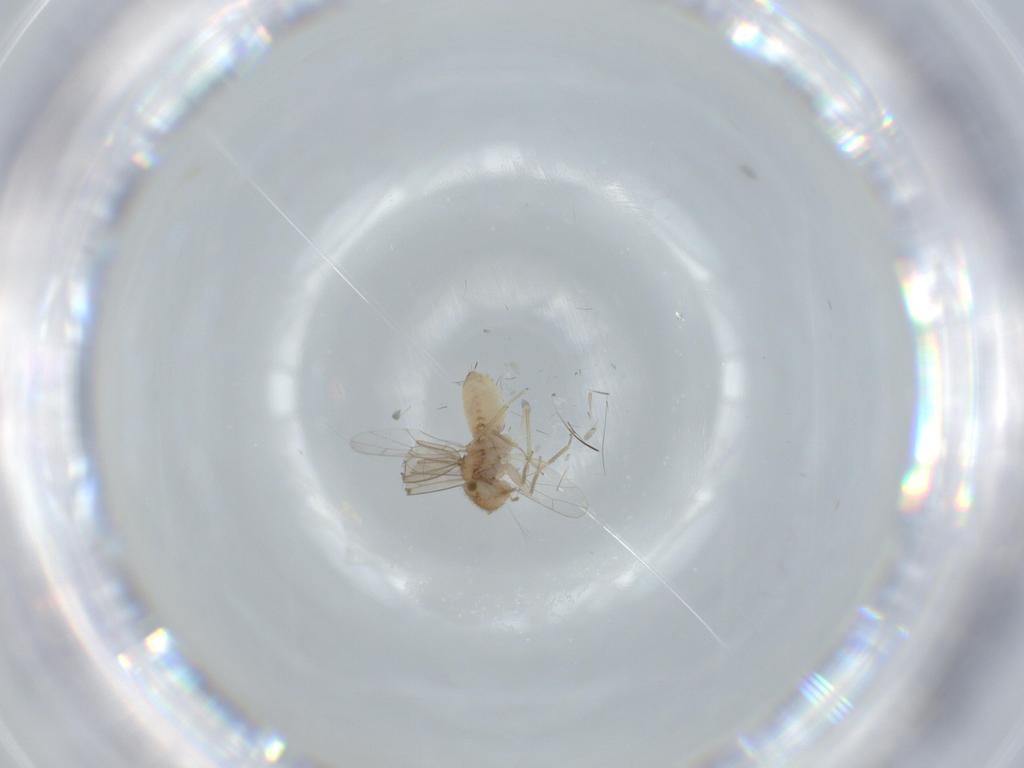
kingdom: Animalia
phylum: Arthropoda
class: Insecta
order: Psocodea
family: Ectopsocidae
